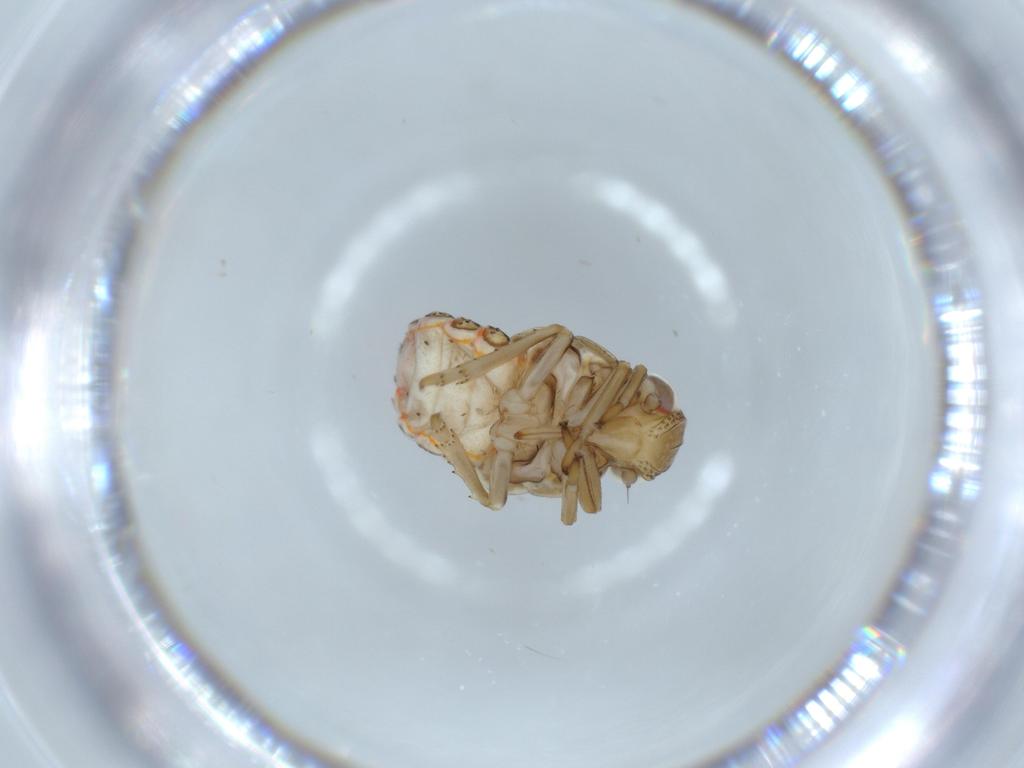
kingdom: Animalia
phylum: Arthropoda
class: Insecta
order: Hemiptera
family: Issidae
